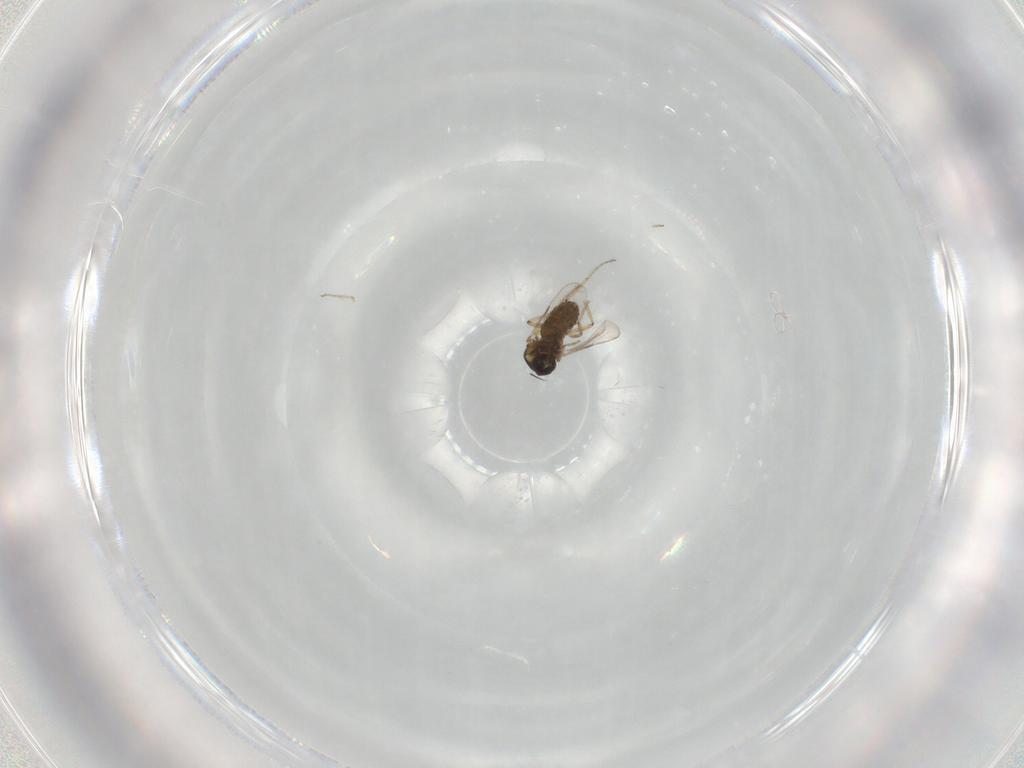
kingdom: Animalia
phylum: Arthropoda
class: Insecta
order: Diptera
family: Ceratopogonidae
